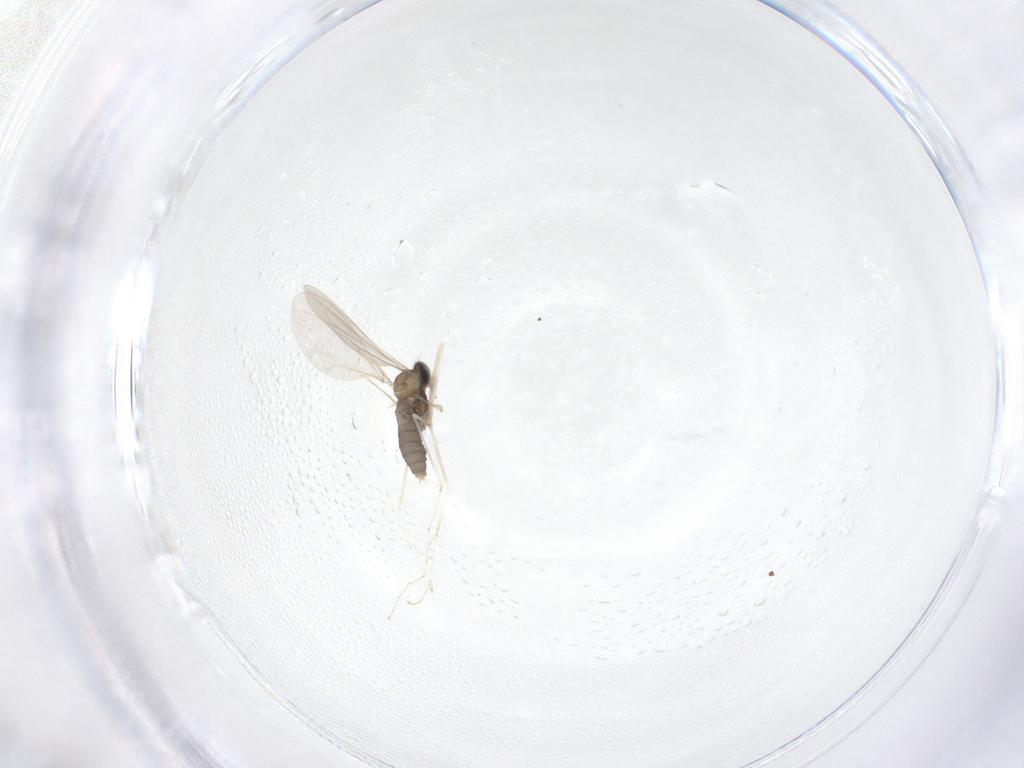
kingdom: Animalia
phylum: Arthropoda
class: Insecta
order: Diptera
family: Cecidomyiidae
